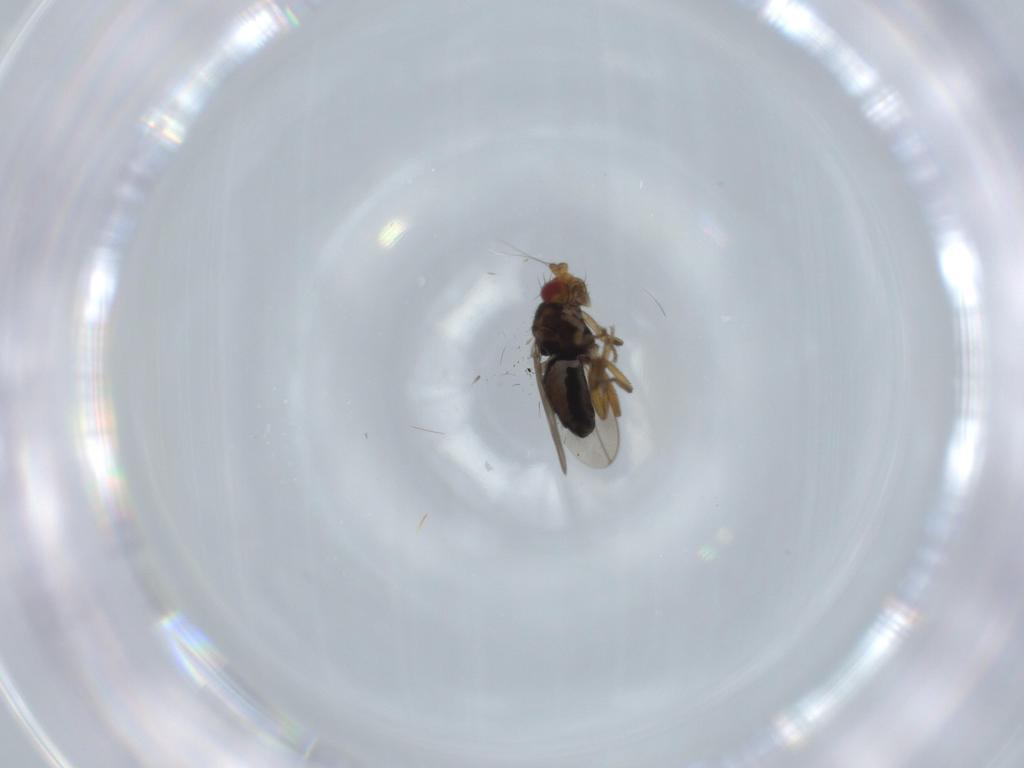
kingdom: Animalia
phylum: Arthropoda
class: Insecta
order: Diptera
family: Sphaeroceridae
